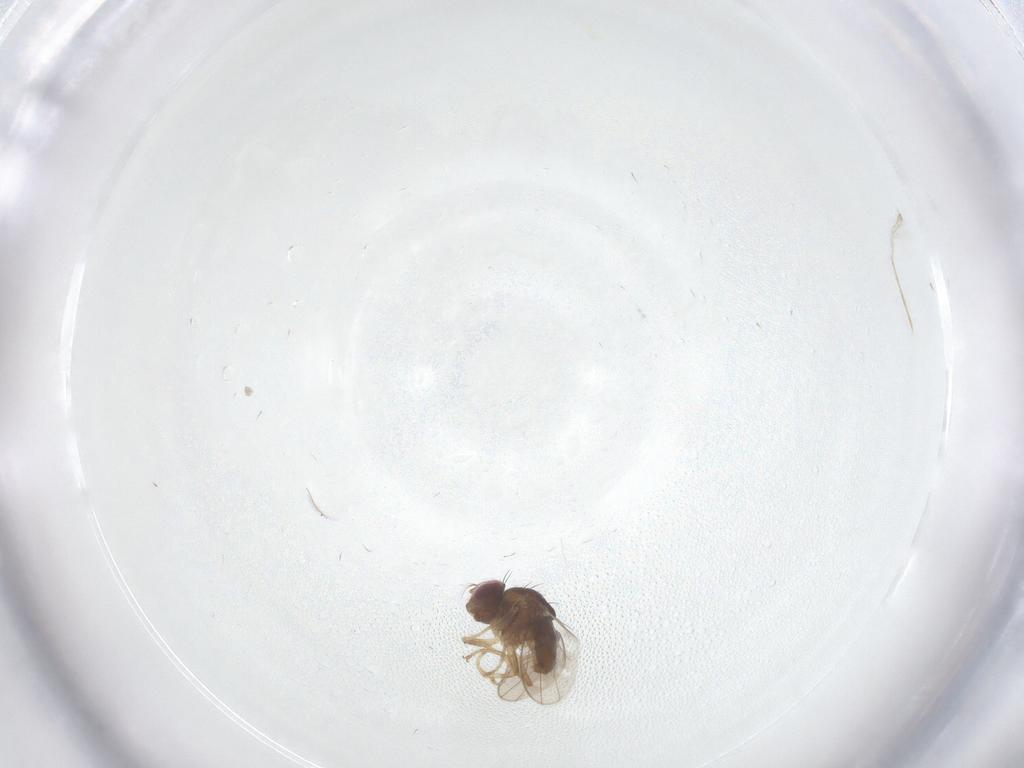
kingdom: Animalia
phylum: Arthropoda
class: Insecta
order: Diptera
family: Ephydridae
